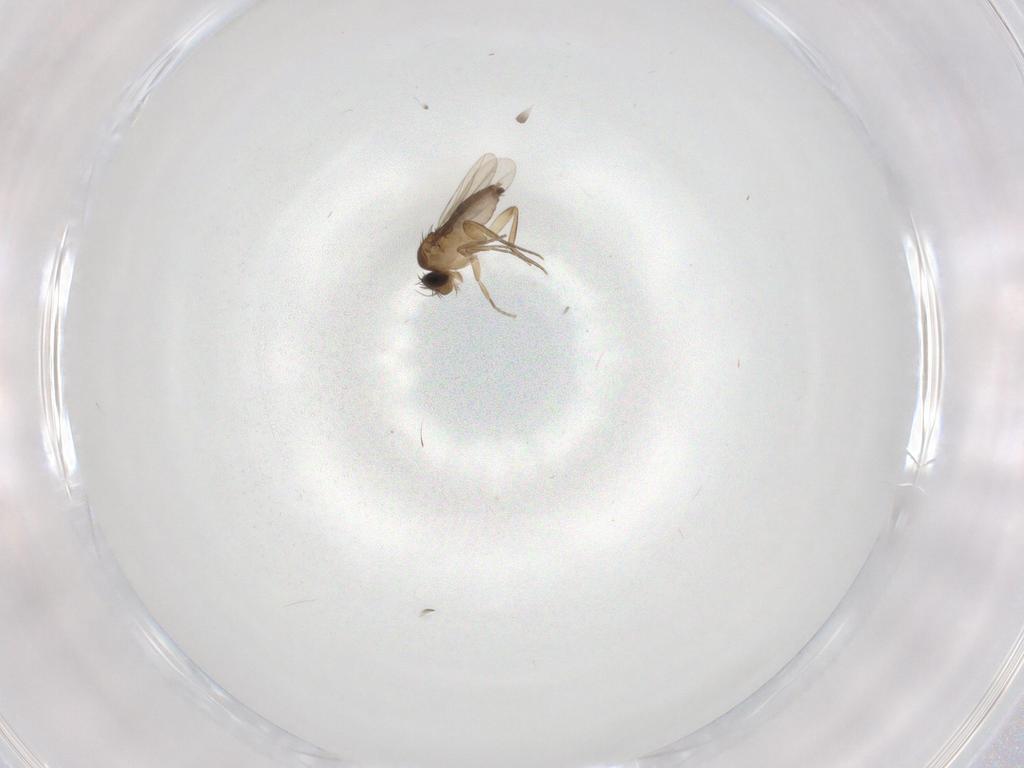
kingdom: Animalia
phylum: Arthropoda
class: Insecta
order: Diptera
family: Phoridae
